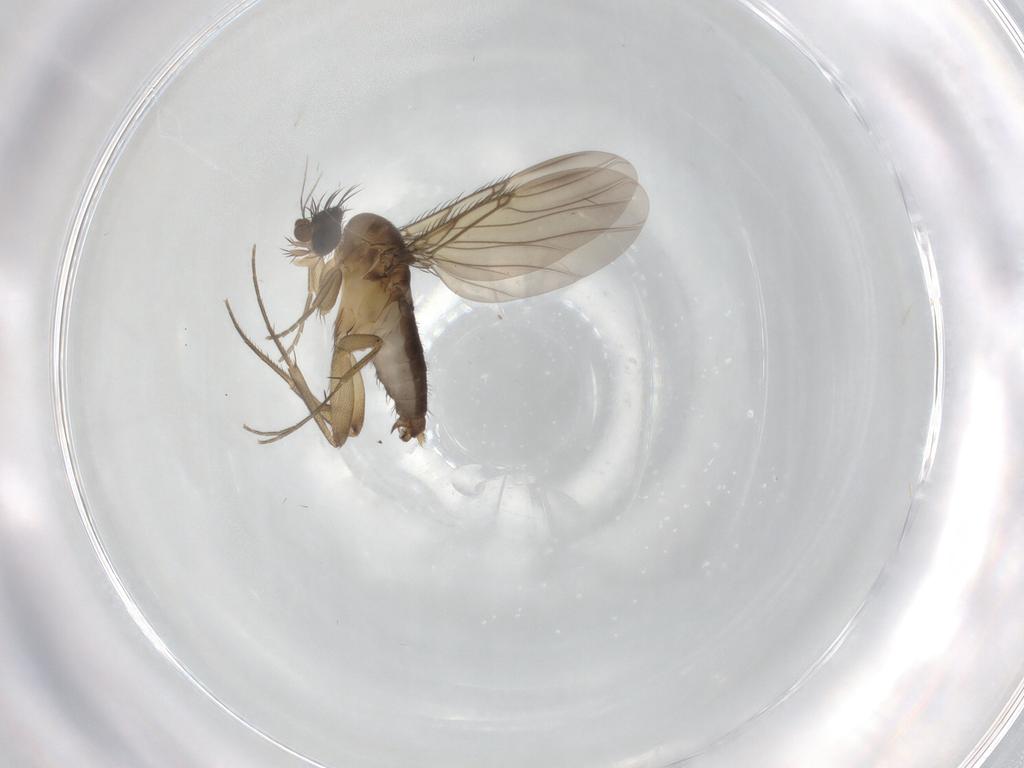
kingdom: Animalia
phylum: Arthropoda
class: Insecta
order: Diptera
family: Phoridae
